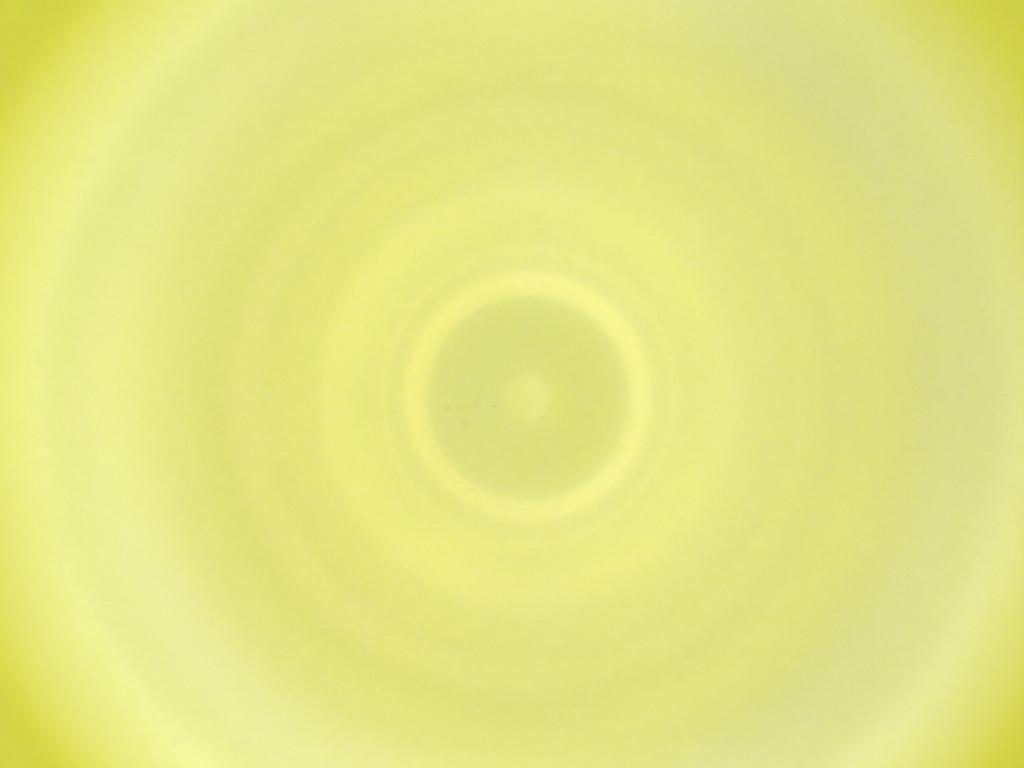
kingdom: Animalia
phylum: Arthropoda
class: Insecta
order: Diptera
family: Cecidomyiidae
